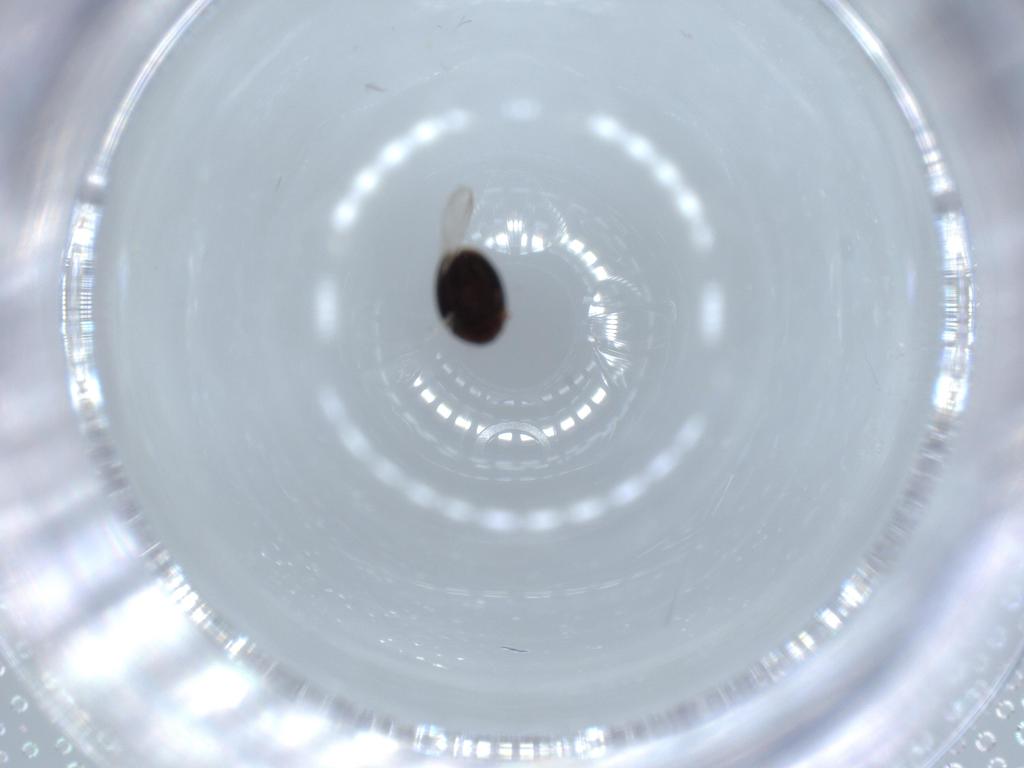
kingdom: Animalia
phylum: Arthropoda
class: Insecta
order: Coleoptera
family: Corylophidae
